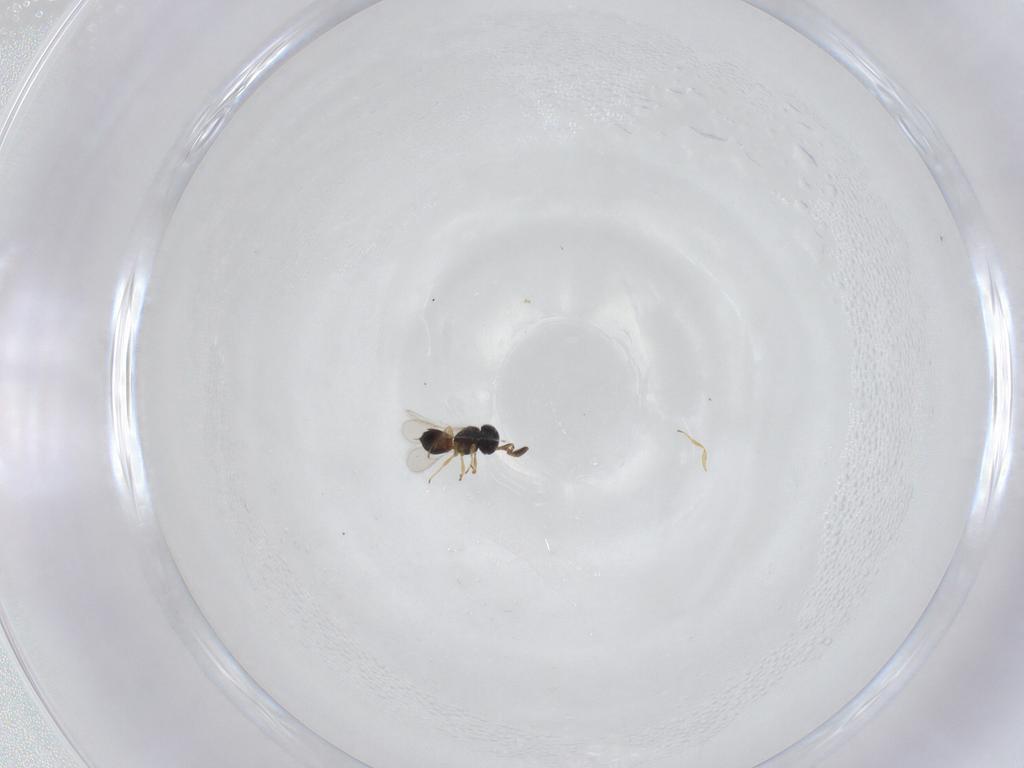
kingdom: Animalia
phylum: Arthropoda
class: Insecta
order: Hymenoptera
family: Scelionidae
